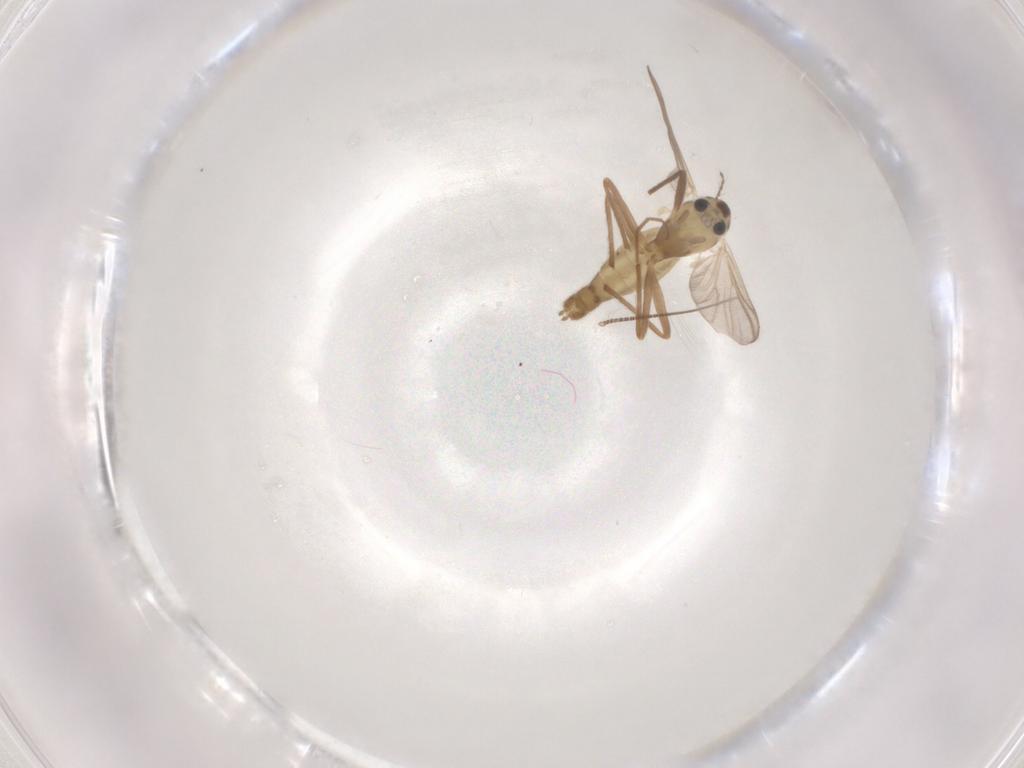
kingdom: Animalia
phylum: Arthropoda
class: Insecta
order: Diptera
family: Chironomidae
